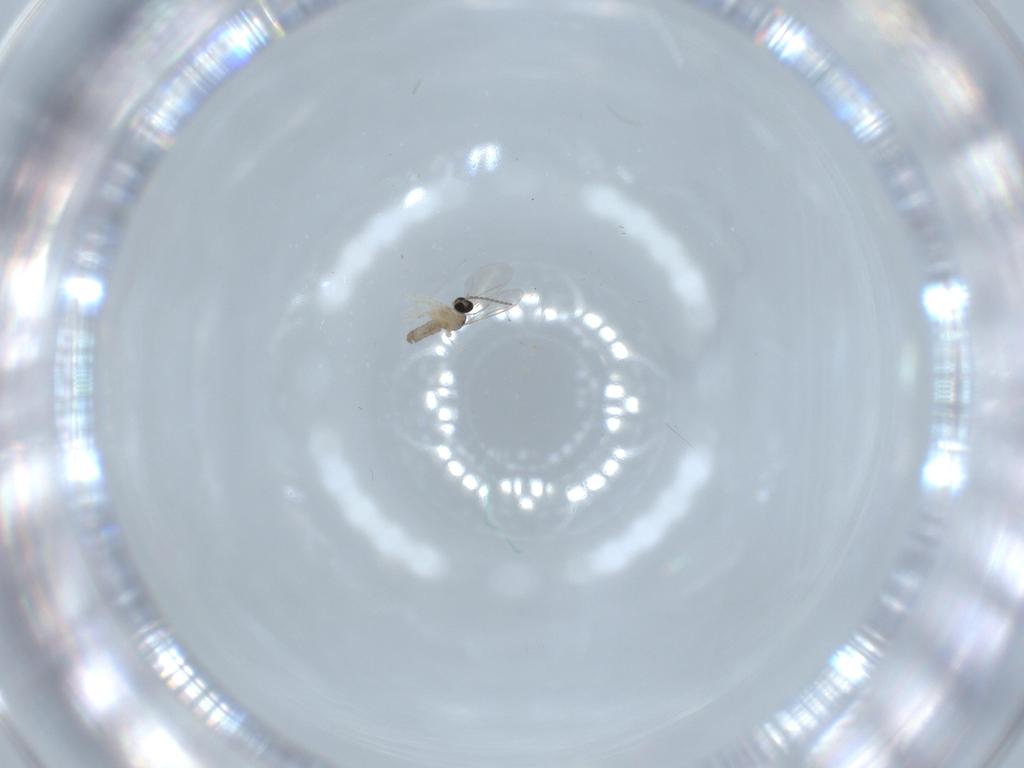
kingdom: Animalia
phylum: Arthropoda
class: Insecta
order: Diptera
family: Cecidomyiidae
